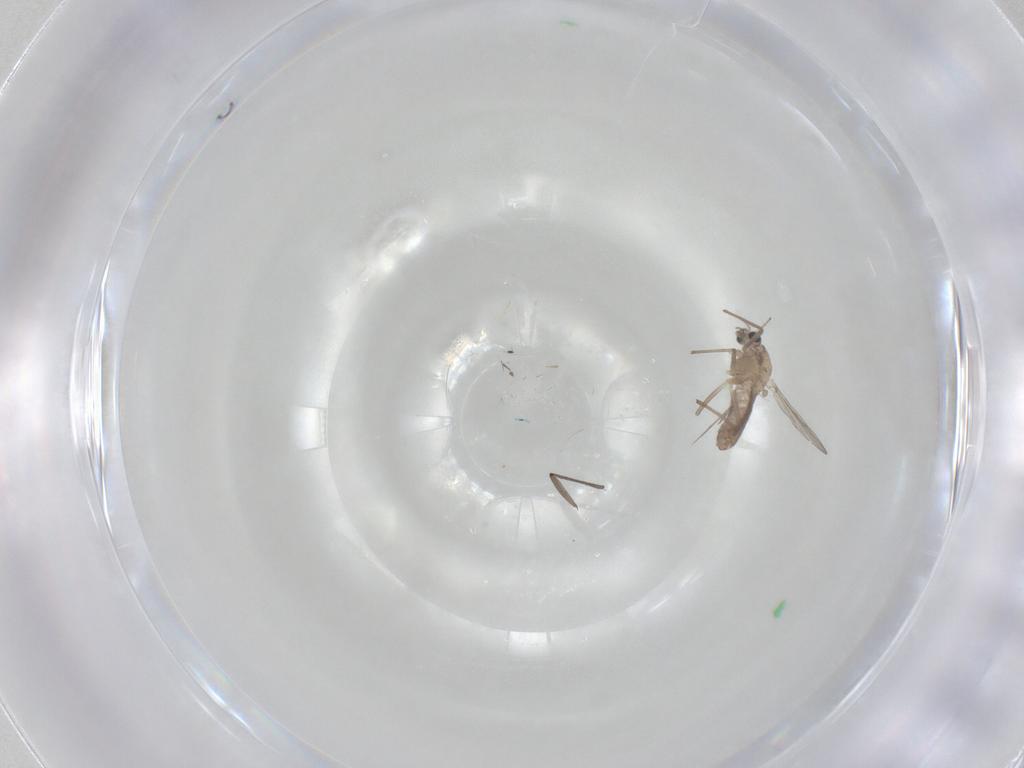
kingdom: Animalia
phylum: Arthropoda
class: Insecta
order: Diptera
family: Chironomidae
